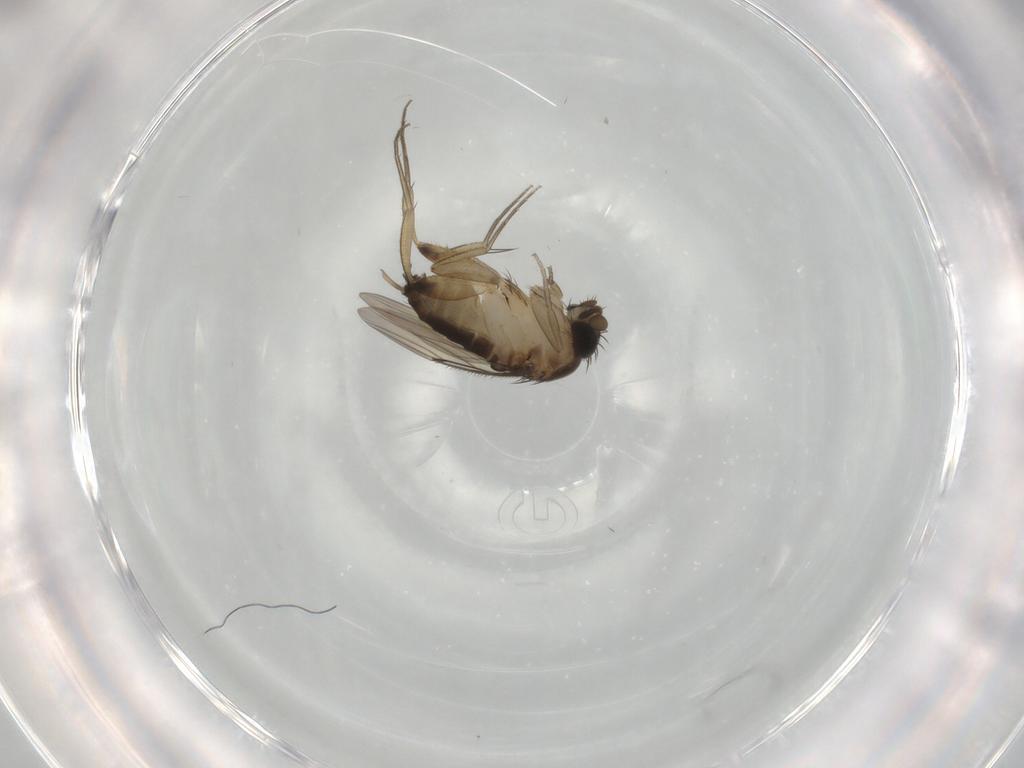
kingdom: Animalia
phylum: Arthropoda
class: Insecta
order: Diptera
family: Phoridae
